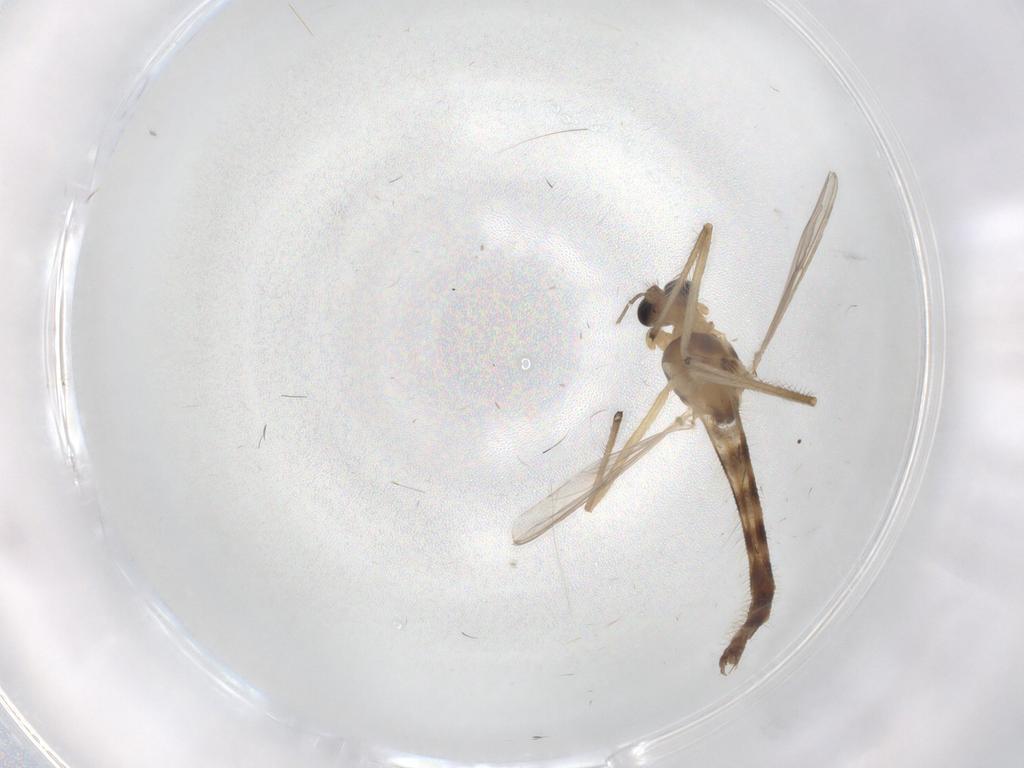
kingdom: Animalia
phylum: Arthropoda
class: Insecta
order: Diptera
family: Chironomidae
